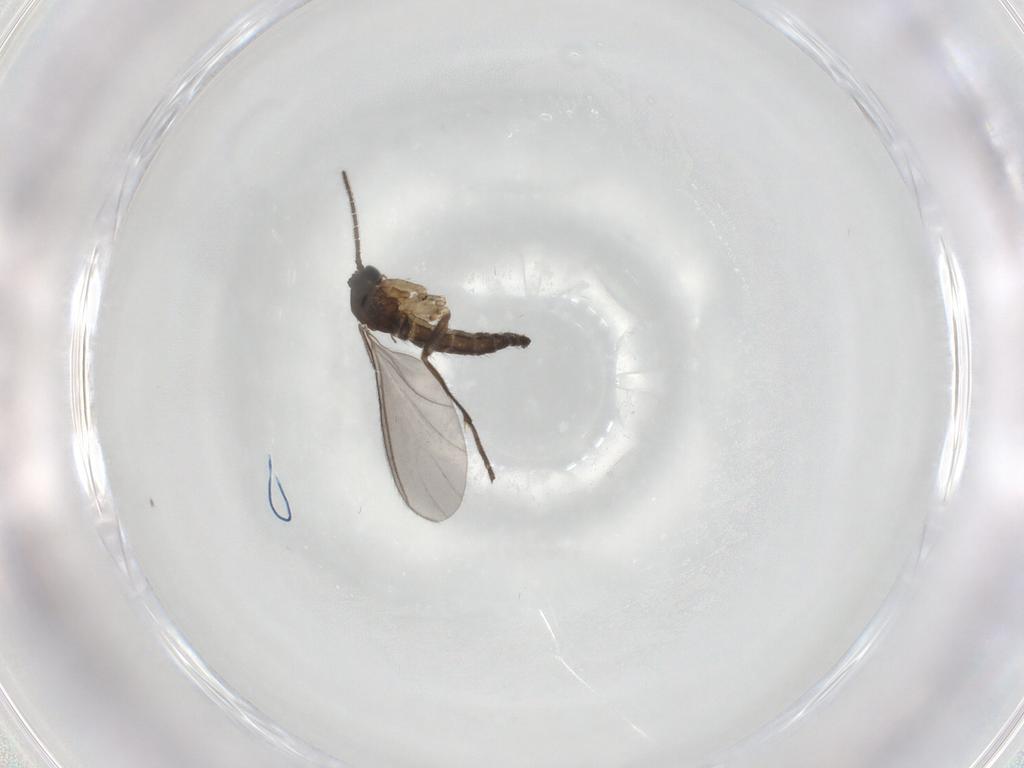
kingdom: Animalia
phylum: Arthropoda
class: Insecta
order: Diptera
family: Sciaridae
